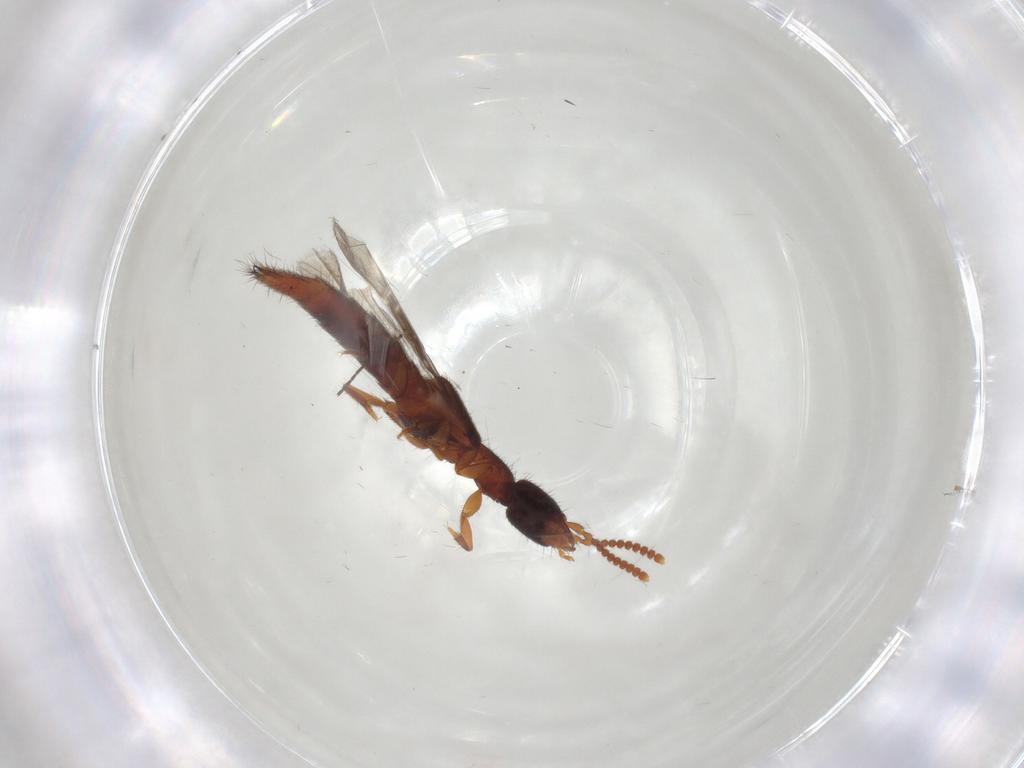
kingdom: Animalia
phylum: Arthropoda
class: Insecta
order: Coleoptera
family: Staphylinidae
